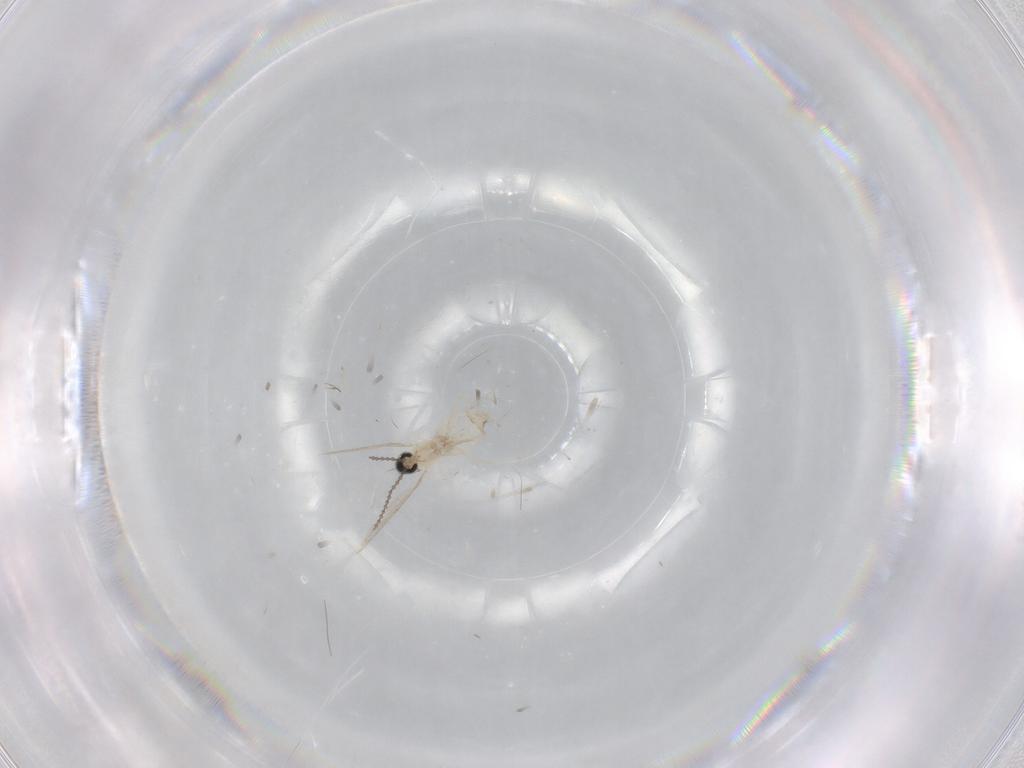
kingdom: Animalia
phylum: Arthropoda
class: Insecta
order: Diptera
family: Cecidomyiidae
